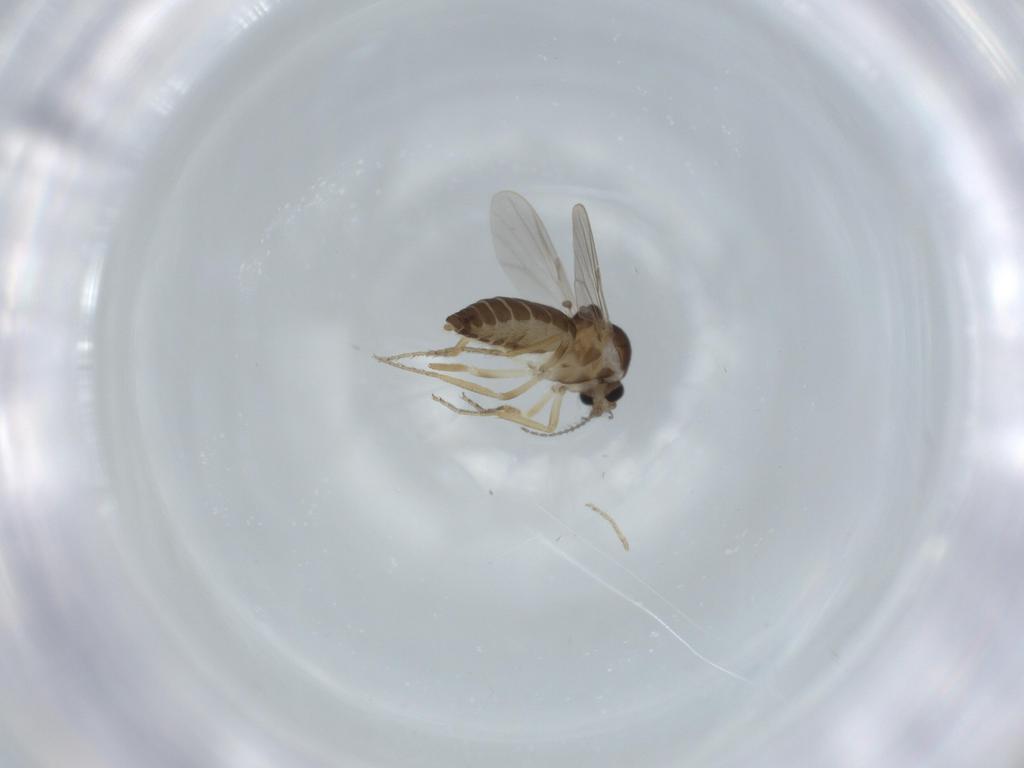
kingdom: Animalia
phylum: Arthropoda
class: Insecta
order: Diptera
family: Ceratopogonidae
